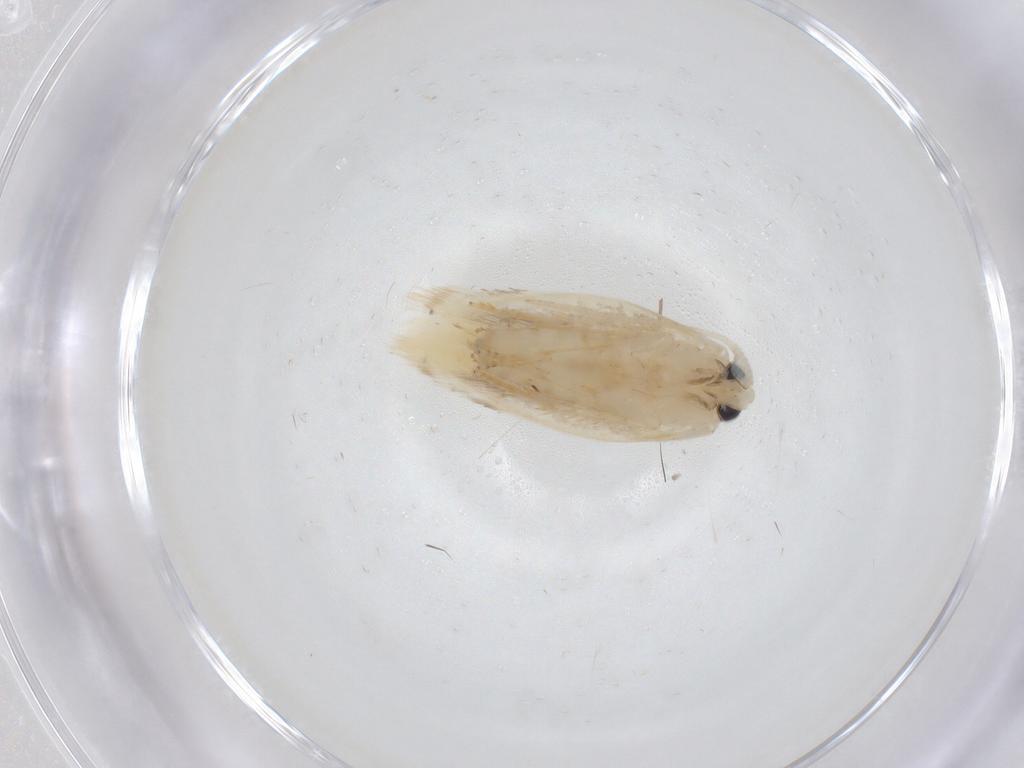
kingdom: Animalia
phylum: Arthropoda
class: Insecta
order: Lepidoptera
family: Opostegidae
